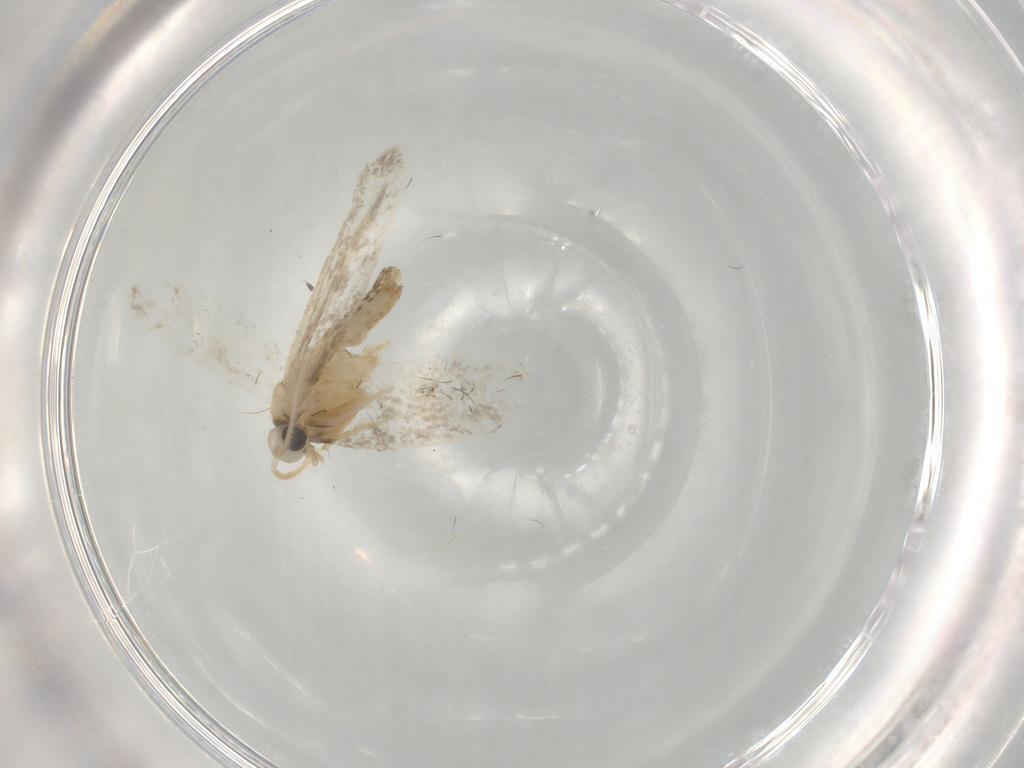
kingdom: Animalia
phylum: Arthropoda
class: Insecta
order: Lepidoptera
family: Psychidae
